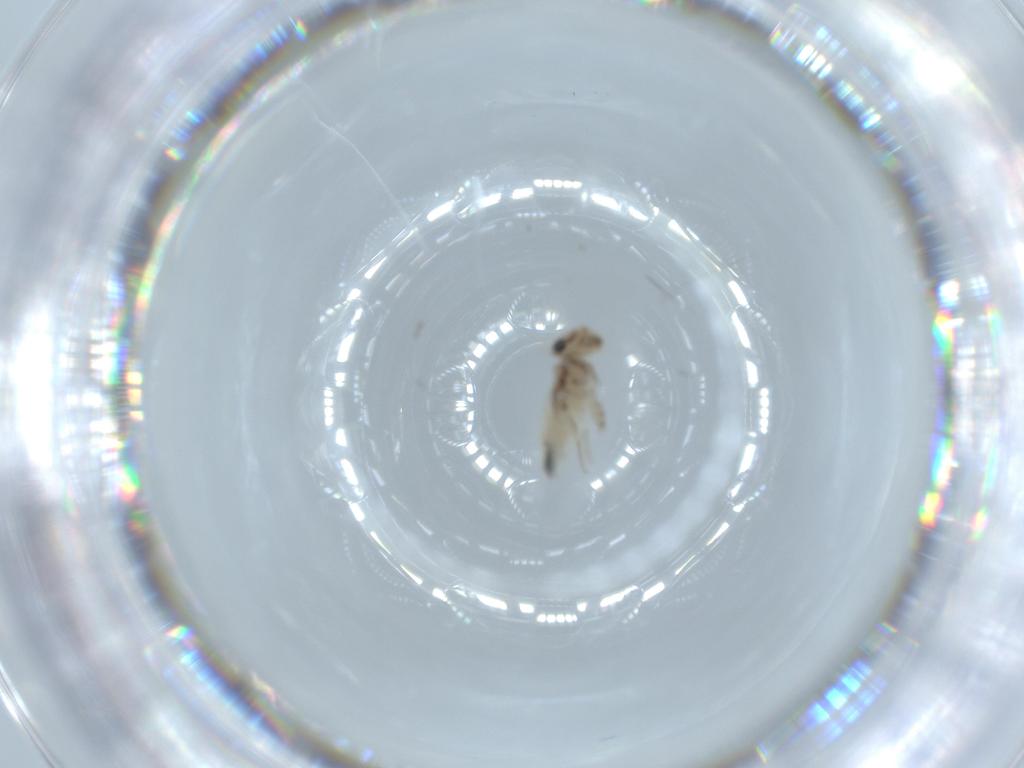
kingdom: Animalia
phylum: Arthropoda
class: Insecta
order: Psocodea
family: Lepidopsocidae
